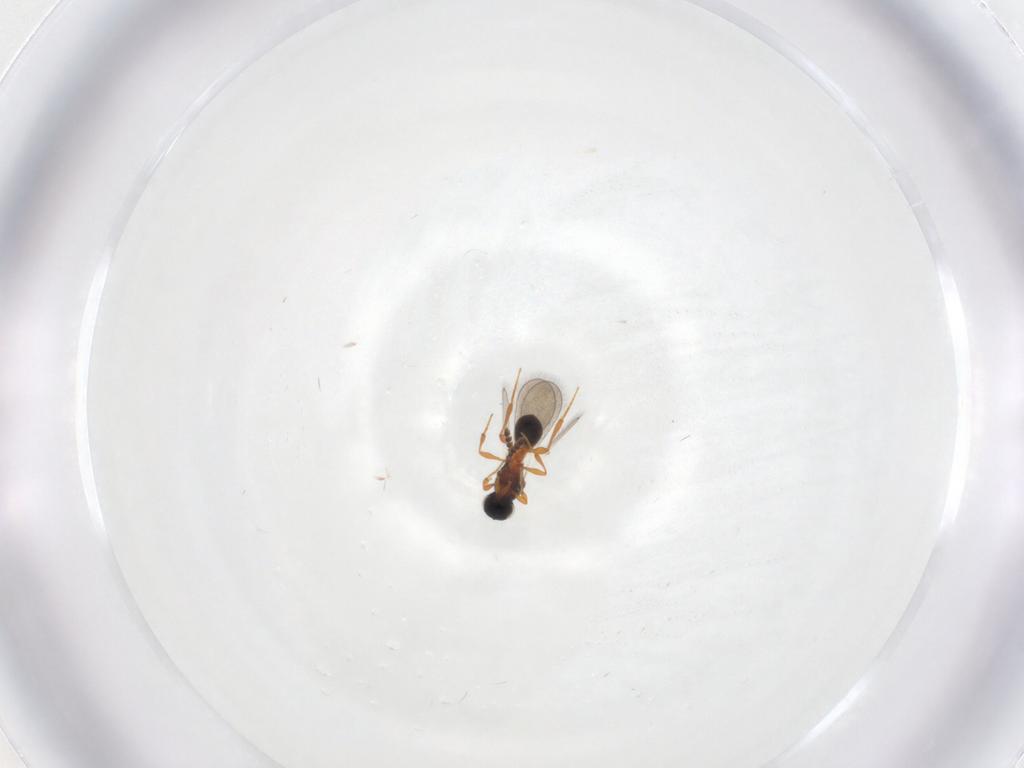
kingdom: Animalia
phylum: Arthropoda
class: Insecta
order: Hymenoptera
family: Platygastridae
